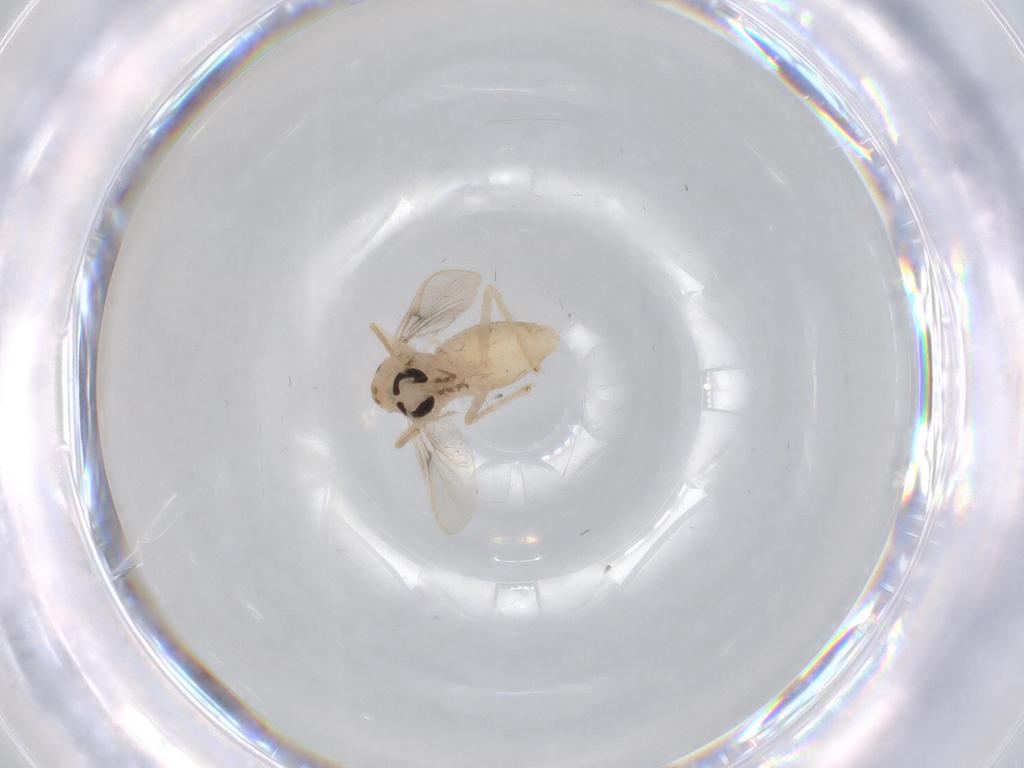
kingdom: Animalia
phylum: Arthropoda
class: Insecta
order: Diptera
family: Chironomidae
